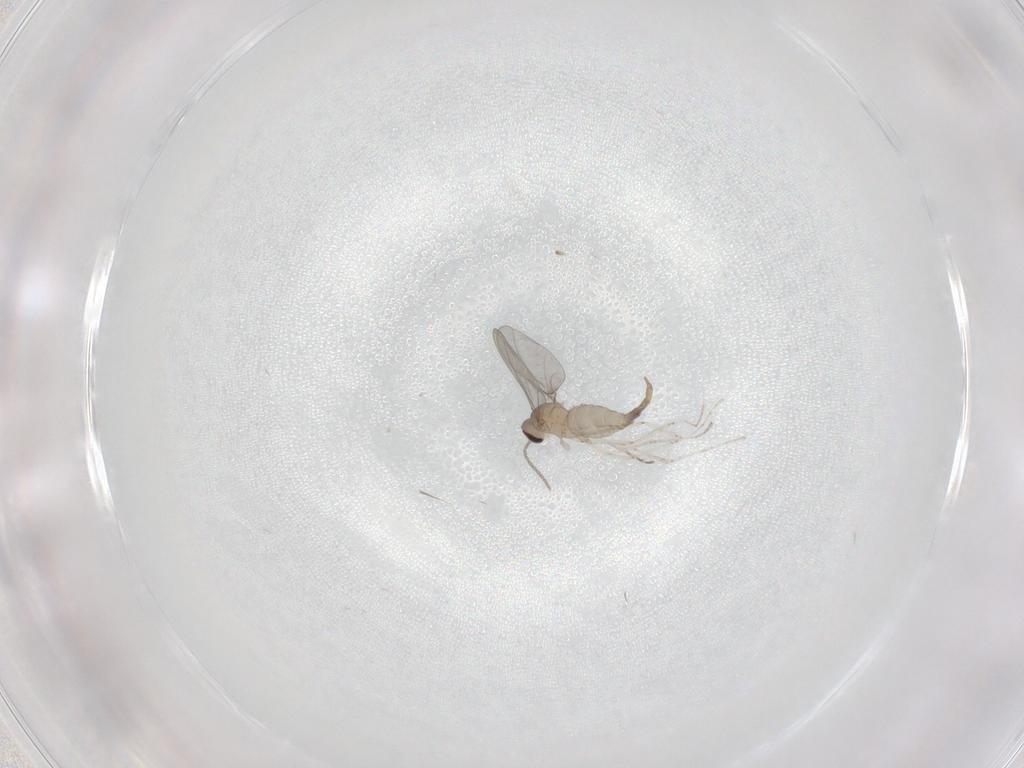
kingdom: Animalia
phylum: Arthropoda
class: Insecta
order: Diptera
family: Cecidomyiidae
